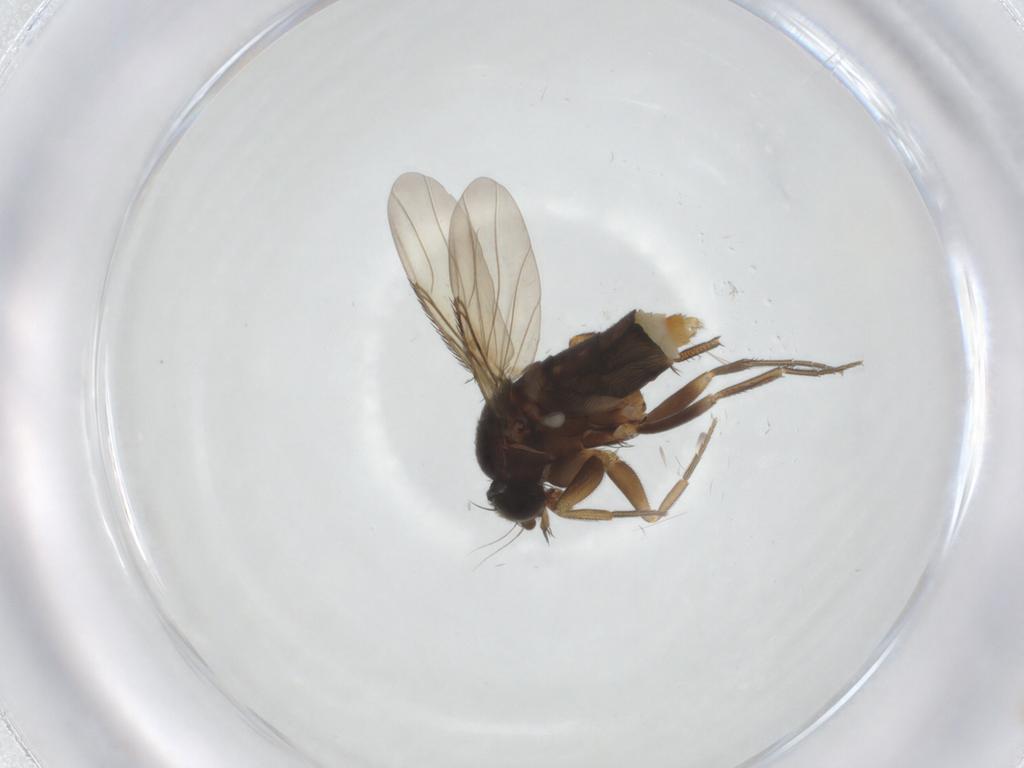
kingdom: Animalia
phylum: Arthropoda
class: Insecta
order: Diptera
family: Phoridae
